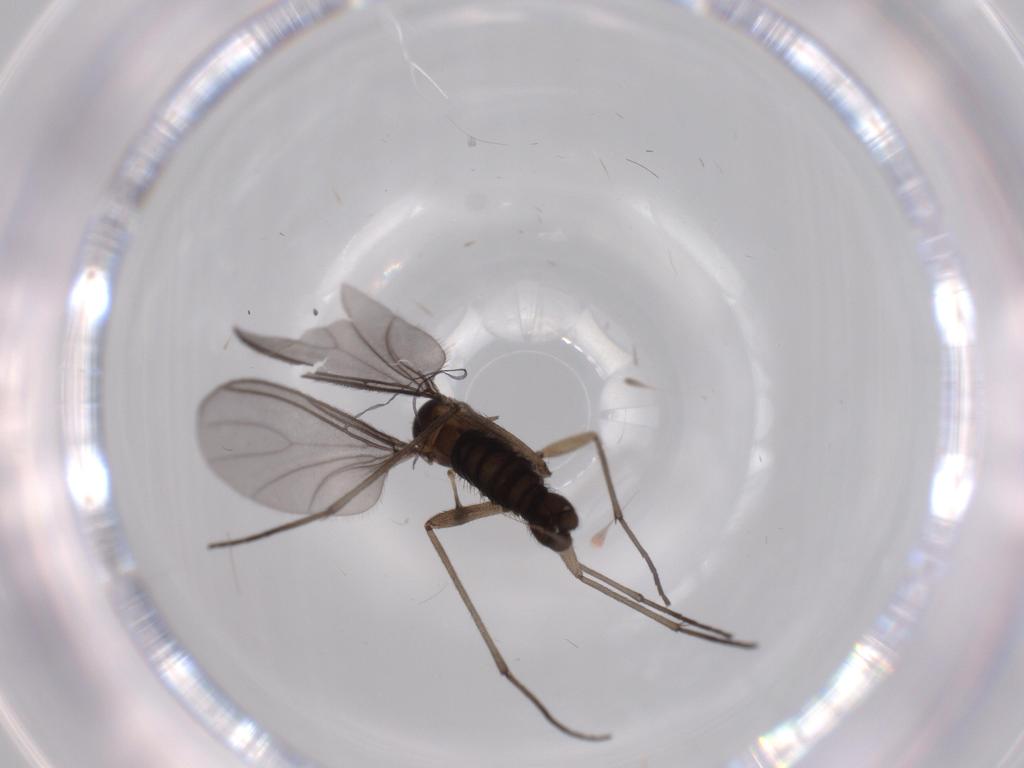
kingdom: Animalia
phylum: Arthropoda
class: Insecta
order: Diptera
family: Sciaridae
